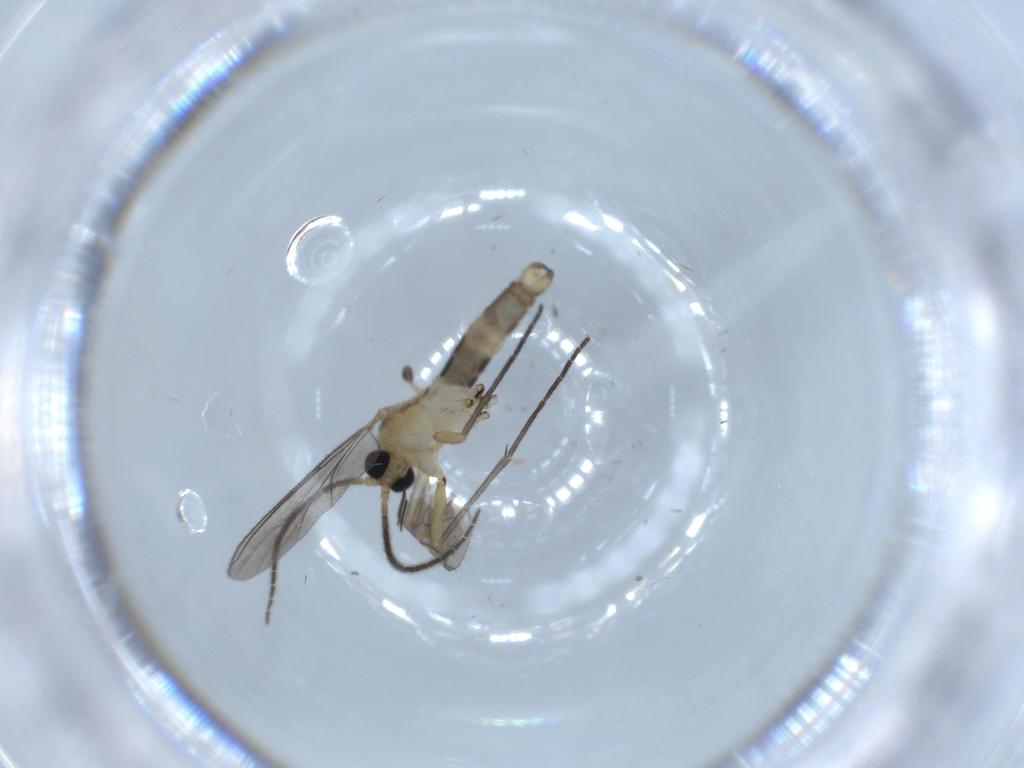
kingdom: Animalia
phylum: Arthropoda
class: Insecta
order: Diptera
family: Sciaridae
